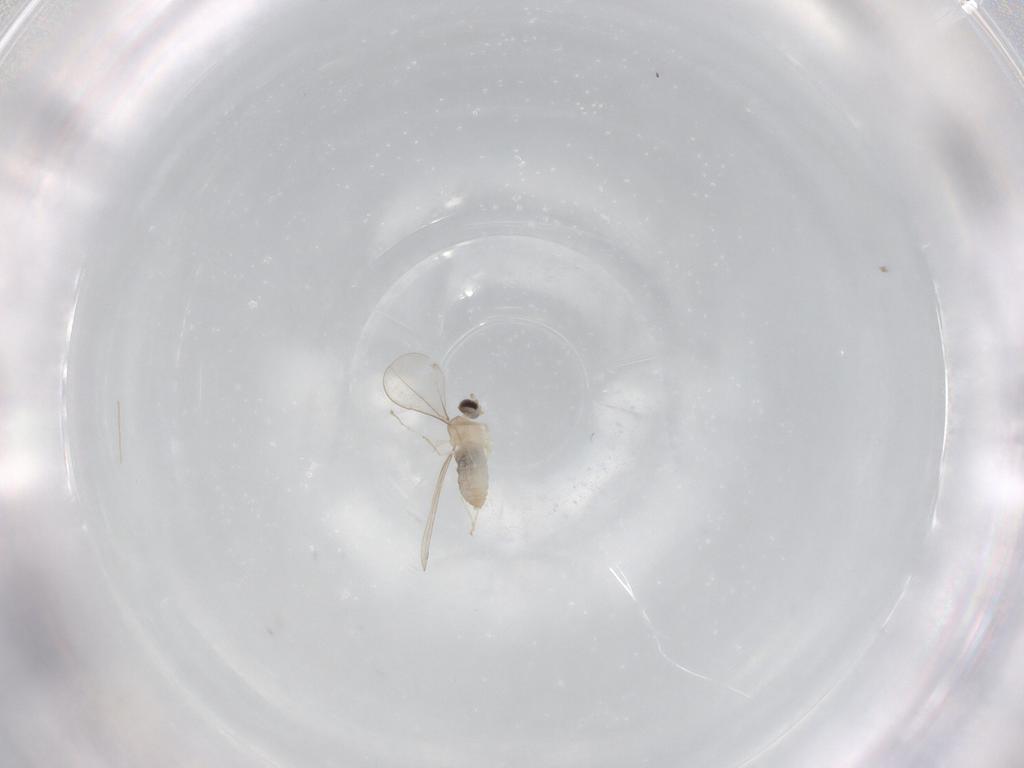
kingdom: Animalia
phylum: Arthropoda
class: Insecta
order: Diptera
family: Cecidomyiidae
